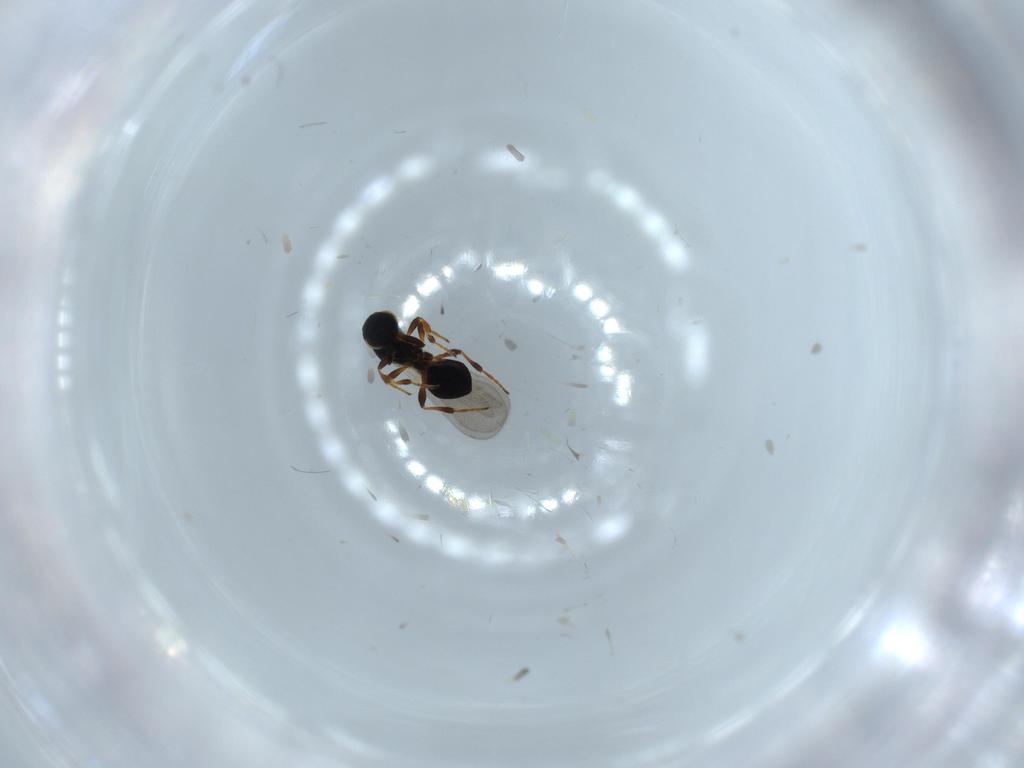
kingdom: Animalia
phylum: Arthropoda
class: Insecta
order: Hymenoptera
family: Platygastridae
